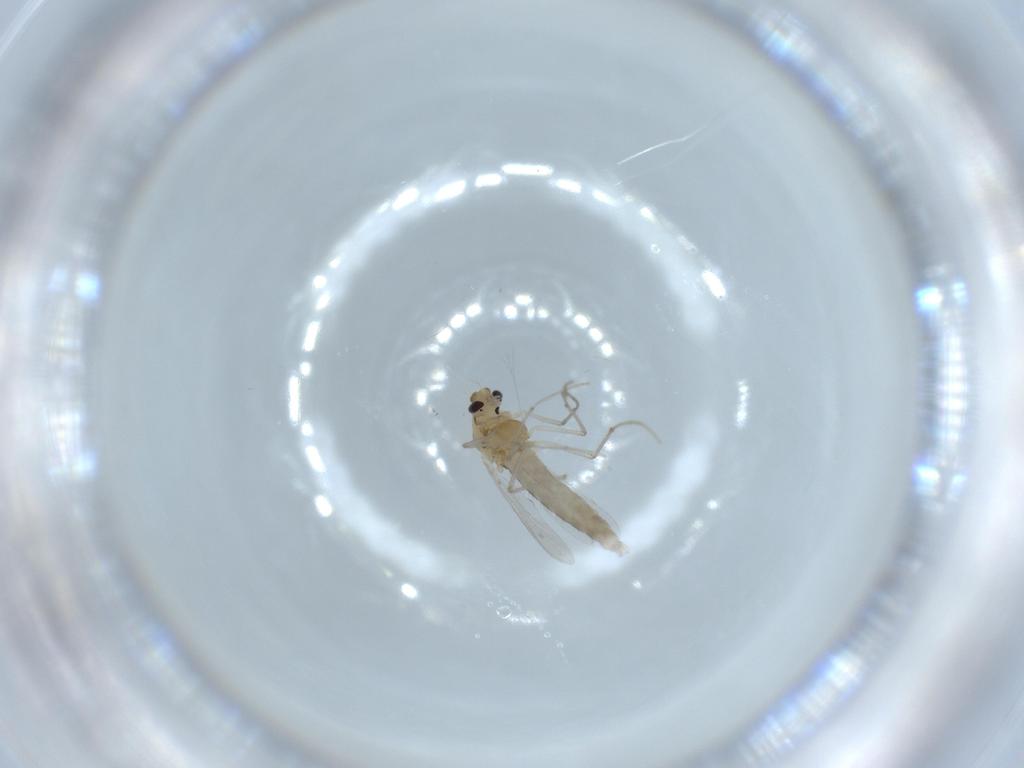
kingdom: Animalia
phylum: Arthropoda
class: Insecta
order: Diptera
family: Chironomidae
